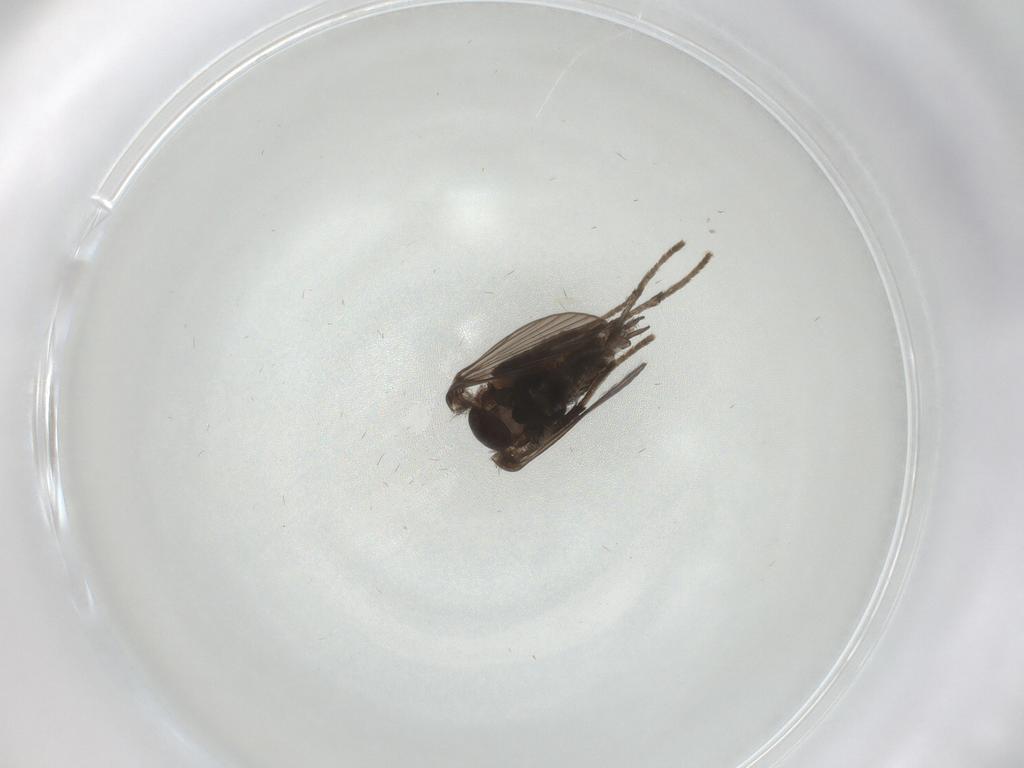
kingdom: Animalia
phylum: Arthropoda
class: Insecta
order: Diptera
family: Psychodidae
